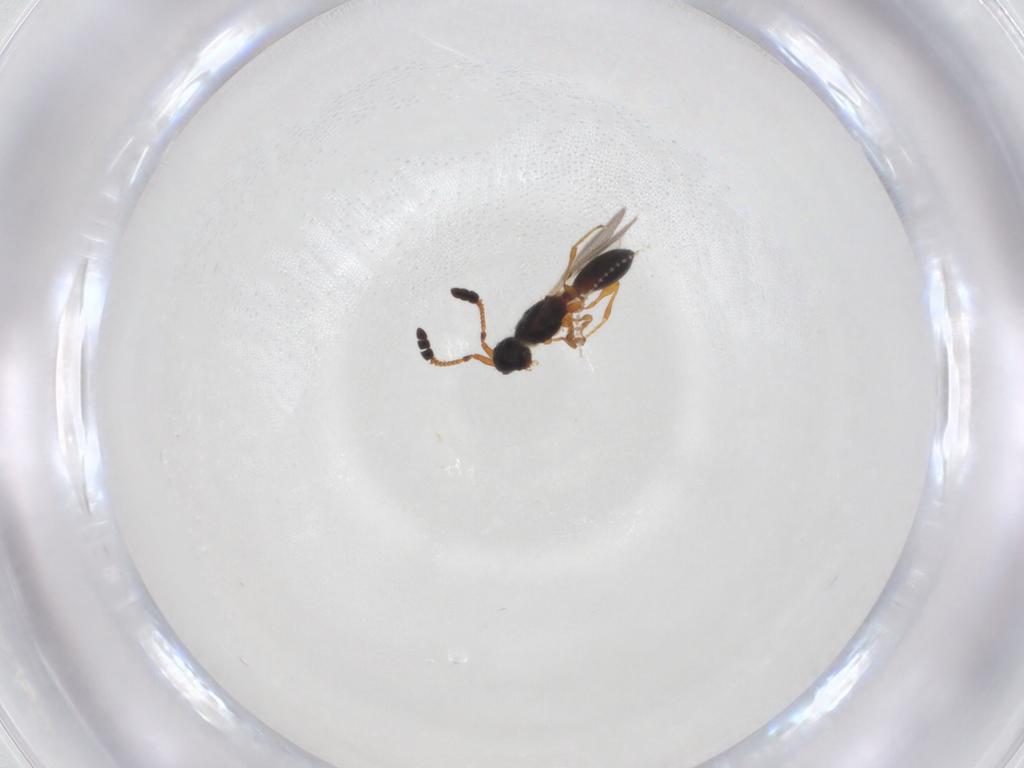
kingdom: Animalia
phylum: Arthropoda
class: Insecta
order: Hymenoptera
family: Diapriidae
